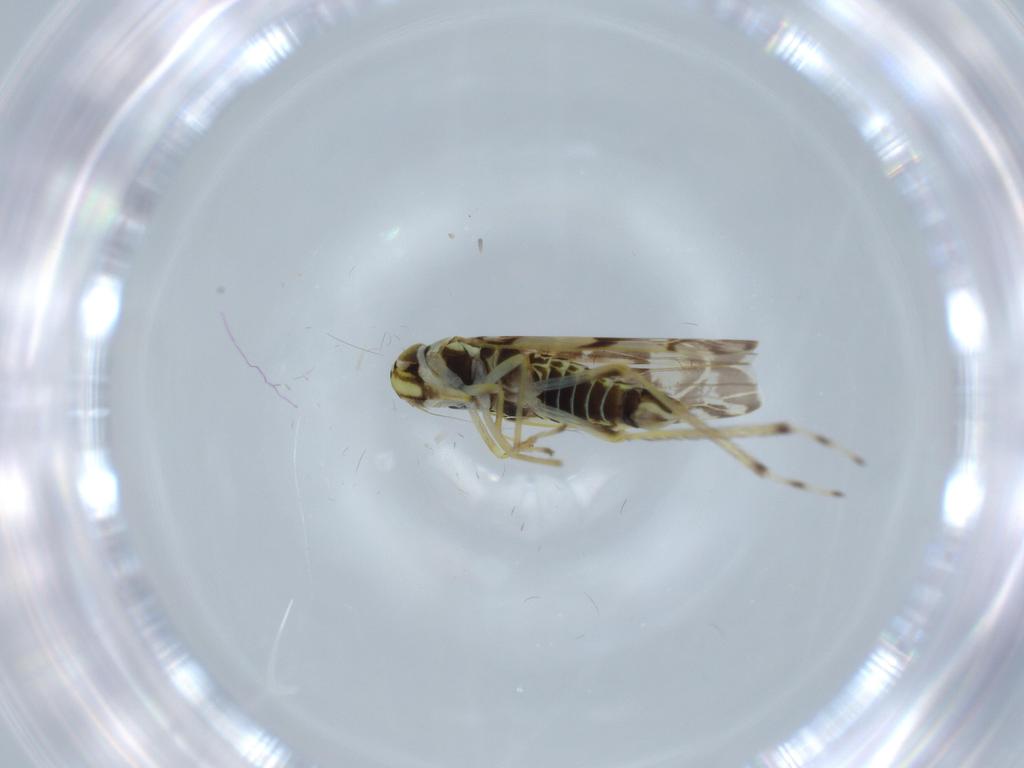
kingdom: Animalia
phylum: Arthropoda
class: Insecta
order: Hemiptera
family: Cicadellidae
